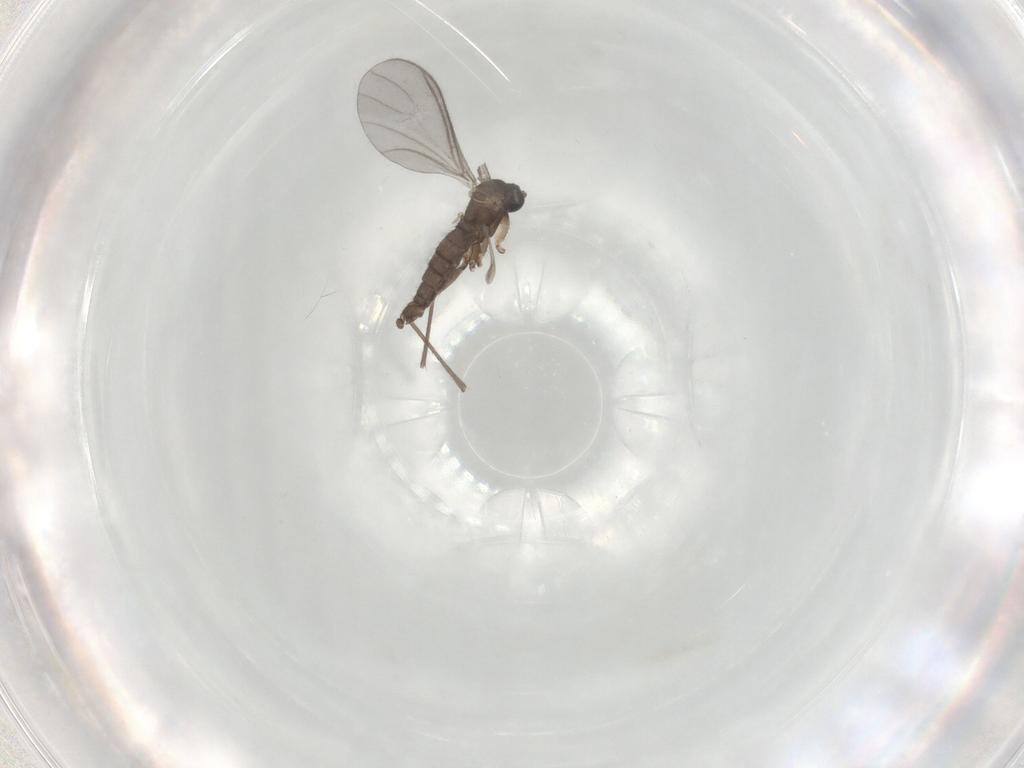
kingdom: Animalia
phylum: Arthropoda
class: Insecta
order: Diptera
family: Sciaridae
